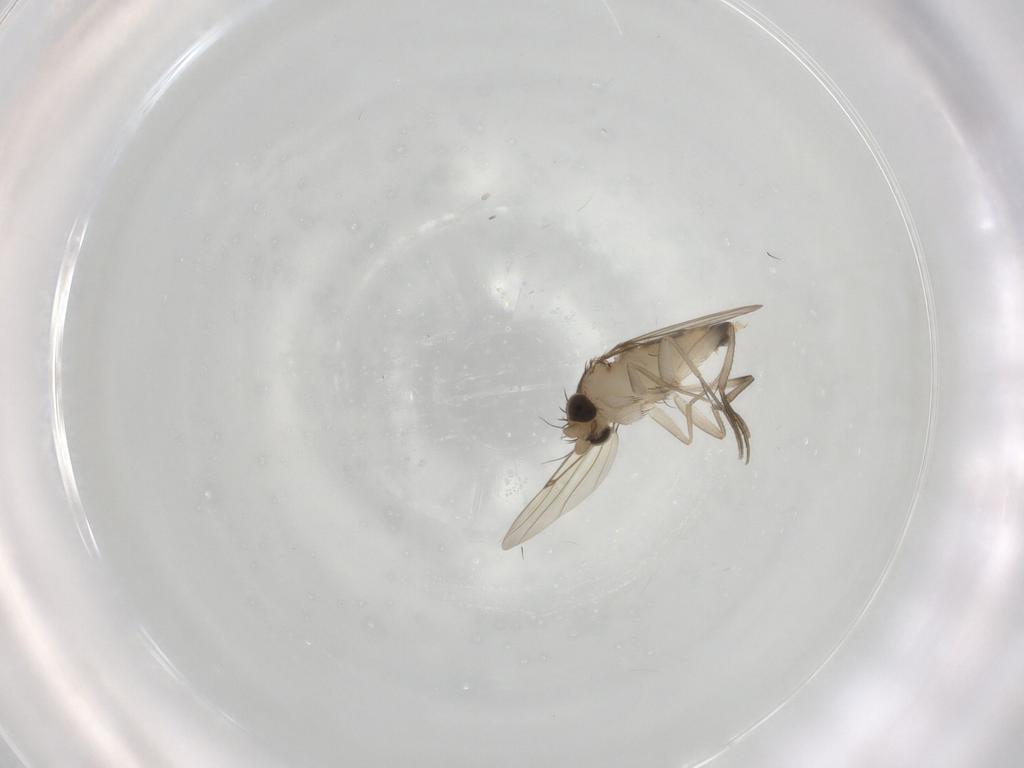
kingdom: Animalia
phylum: Arthropoda
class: Insecta
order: Diptera
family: Phoridae
